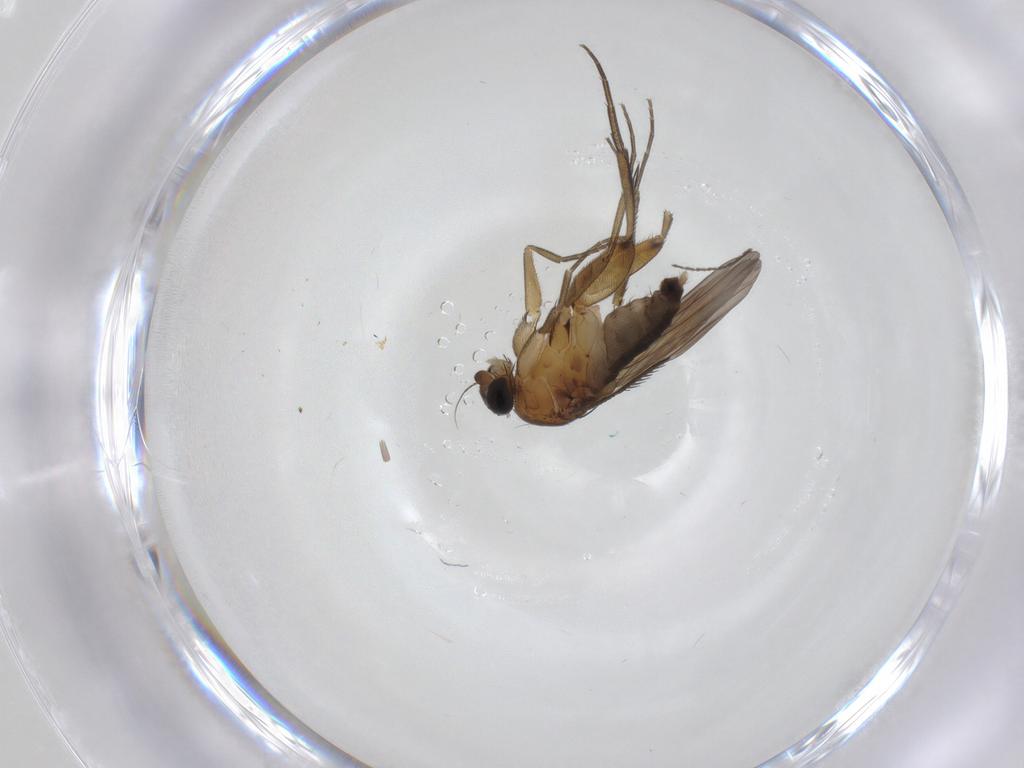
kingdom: Animalia
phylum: Arthropoda
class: Insecta
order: Diptera
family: Phoridae
